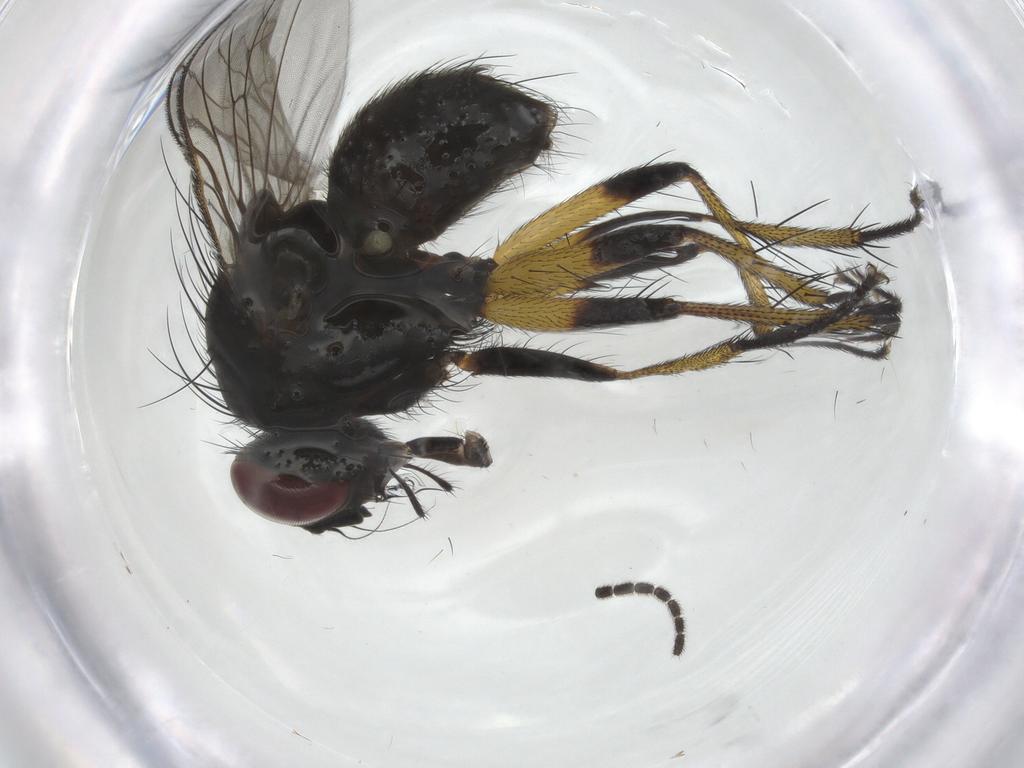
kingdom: Animalia
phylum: Arthropoda
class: Insecta
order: Diptera
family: Muscidae
